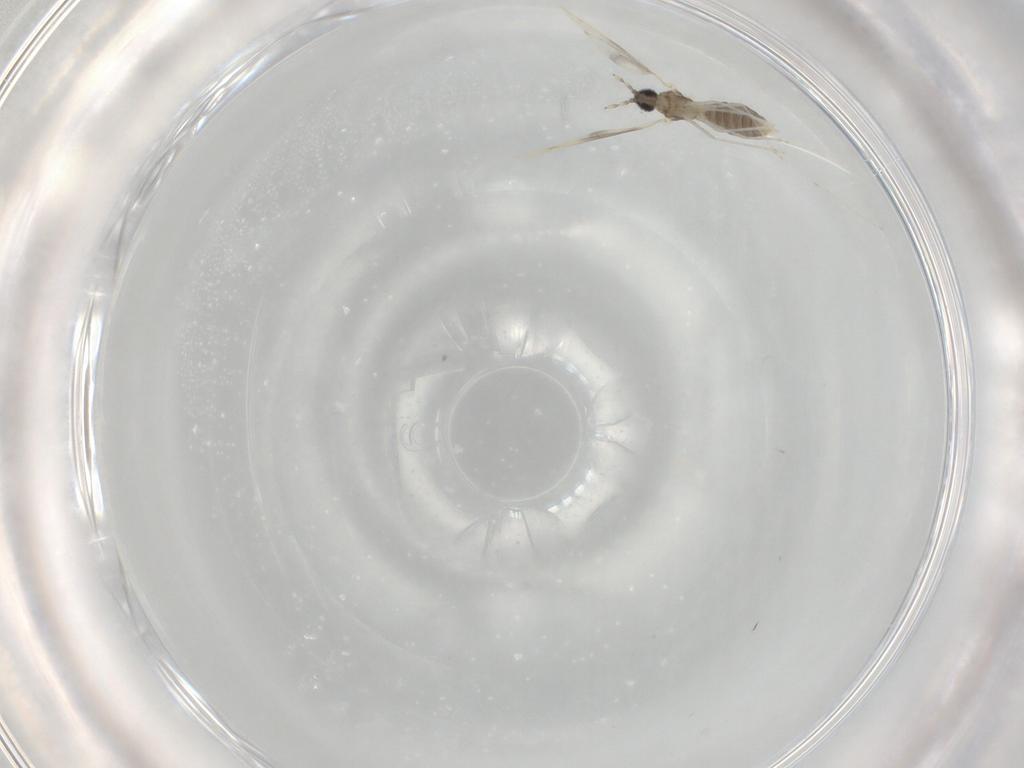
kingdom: Animalia
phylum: Arthropoda
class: Insecta
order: Diptera
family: Cecidomyiidae
